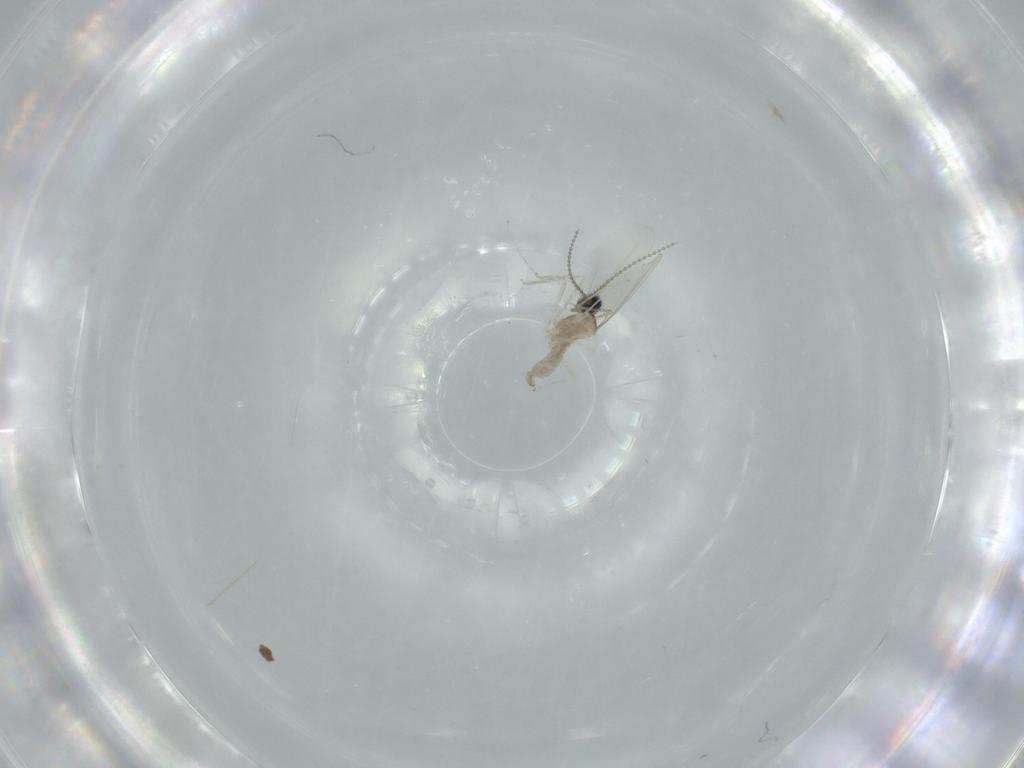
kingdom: Animalia
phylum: Arthropoda
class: Insecta
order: Diptera
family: Cecidomyiidae
